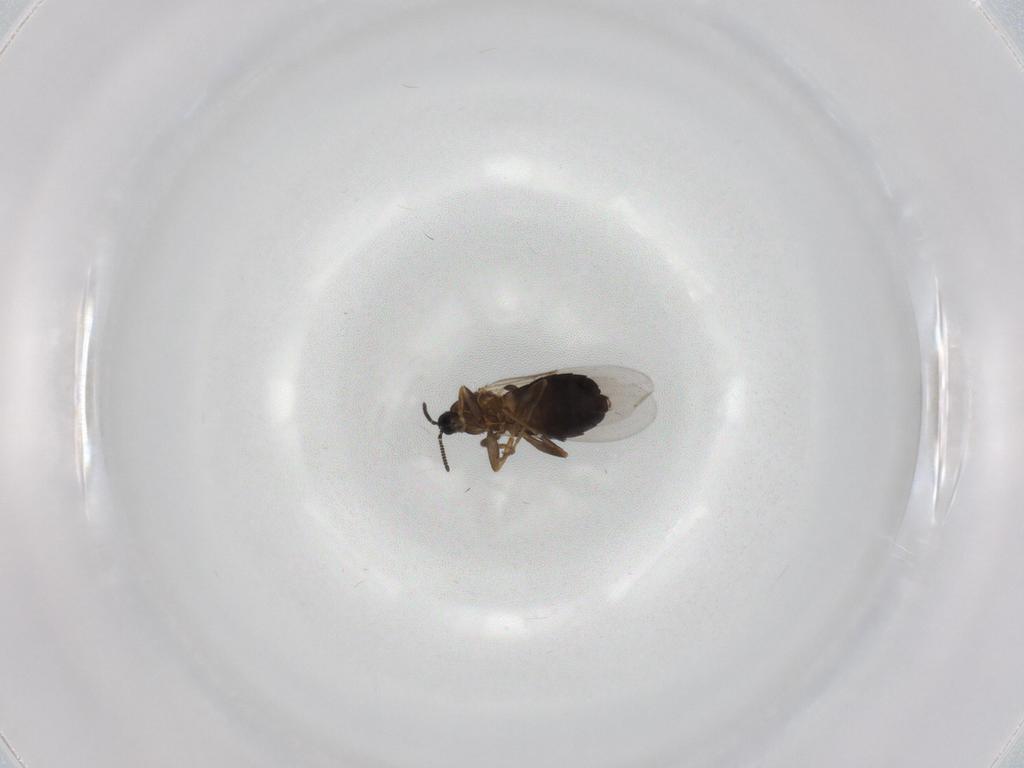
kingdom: Animalia
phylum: Arthropoda
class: Insecta
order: Diptera
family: Scatopsidae
